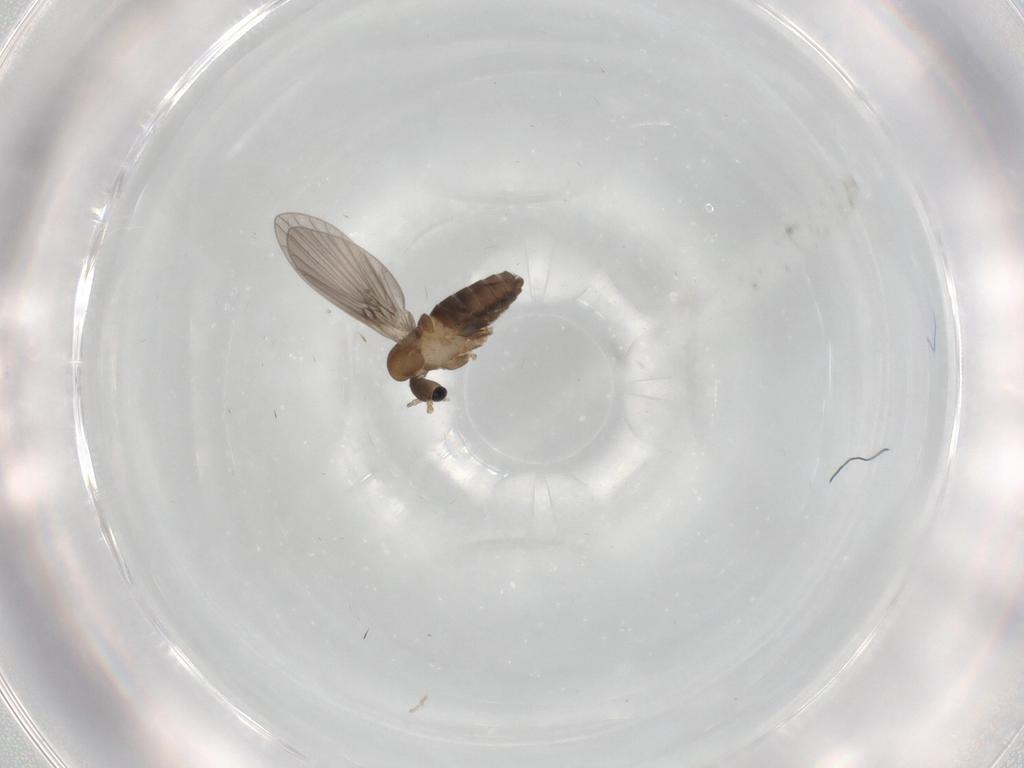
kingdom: Animalia
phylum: Arthropoda
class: Insecta
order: Diptera
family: Psychodidae
